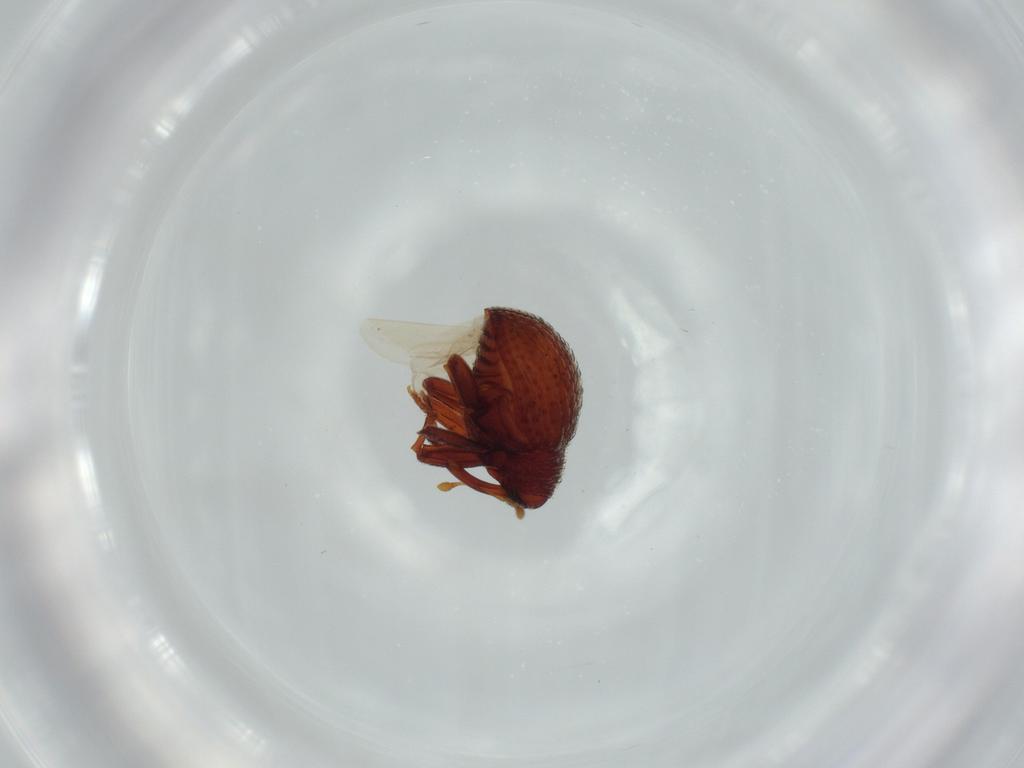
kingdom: Animalia
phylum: Arthropoda
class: Insecta
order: Coleoptera
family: Curculionidae
